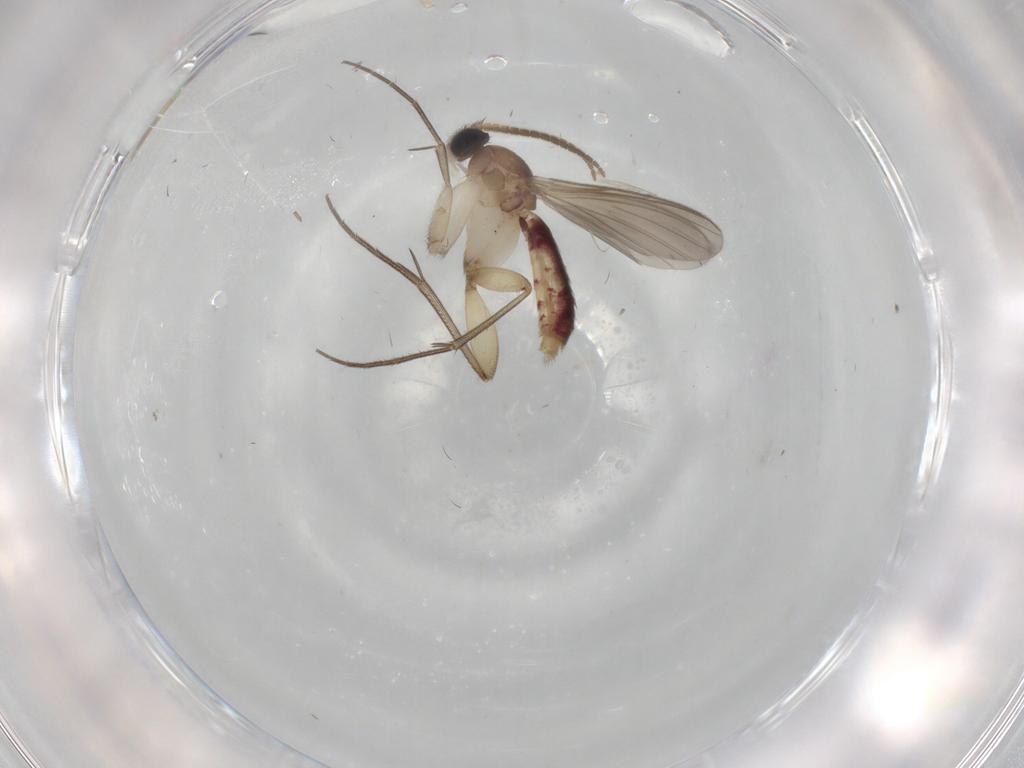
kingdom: Animalia
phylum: Arthropoda
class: Insecta
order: Diptera
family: Mycetophilidae
